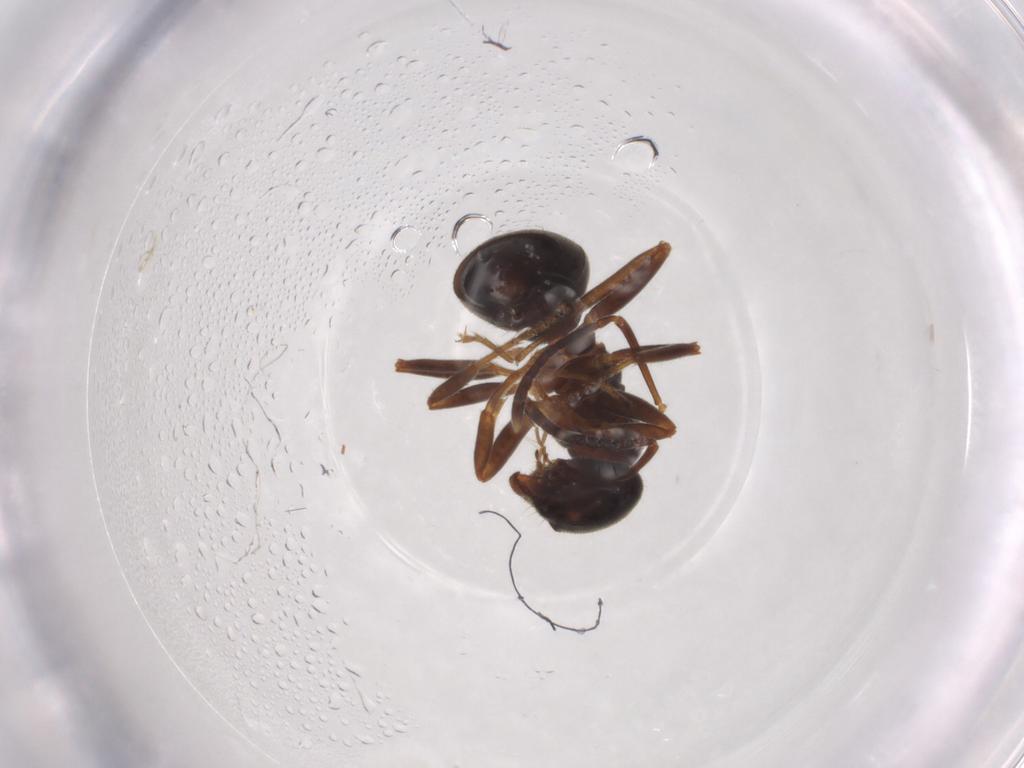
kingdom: Animalia
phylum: Arthropoda
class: Insecta
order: Hymenoptera
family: Formicidae
